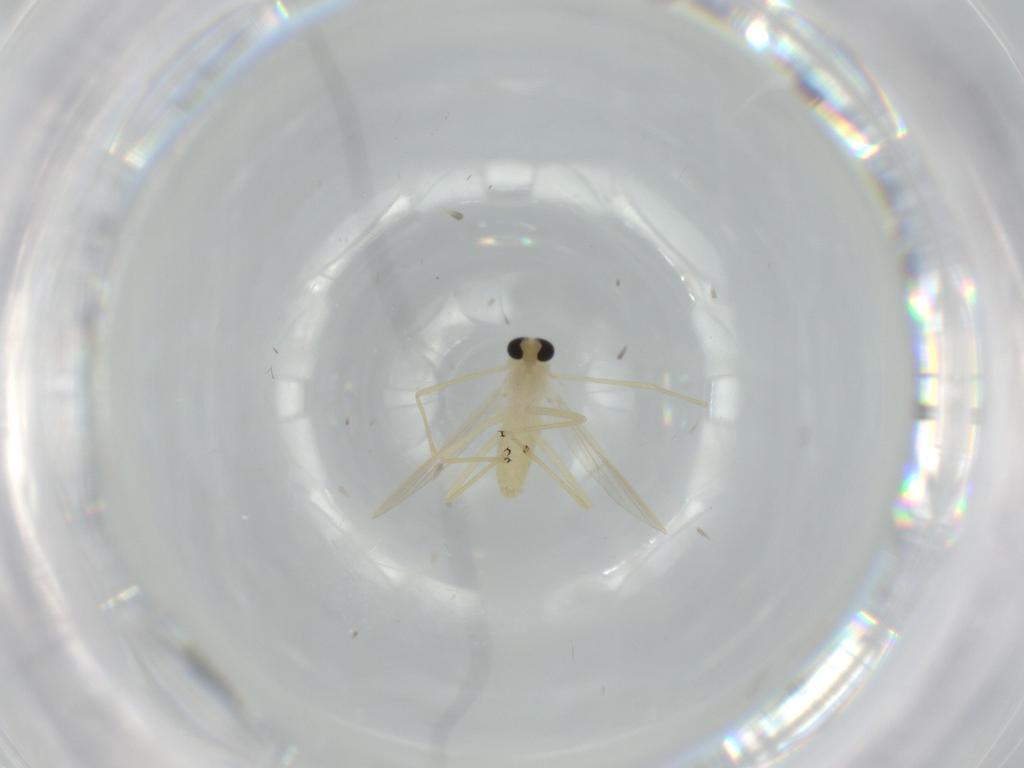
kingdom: Animalia
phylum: Arthropoda
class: Insecta
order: Diptera
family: Chironomidae
